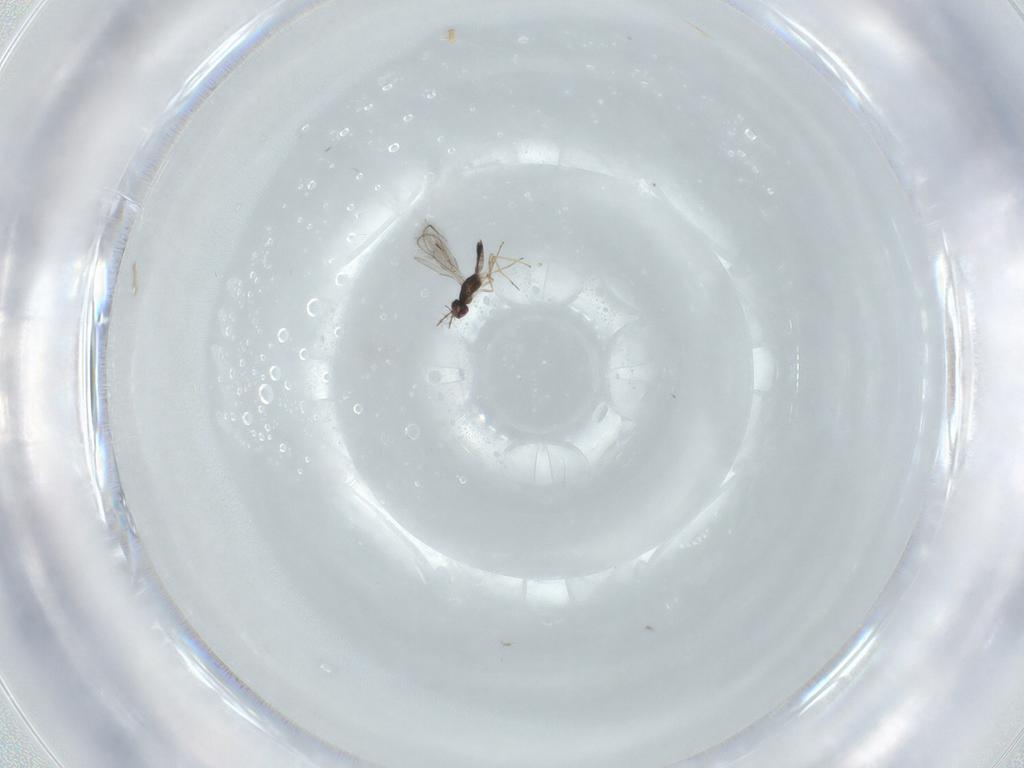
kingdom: Animalia
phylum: Arthropoda
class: Insecta
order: Hymenoptera
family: Pteromalidae
